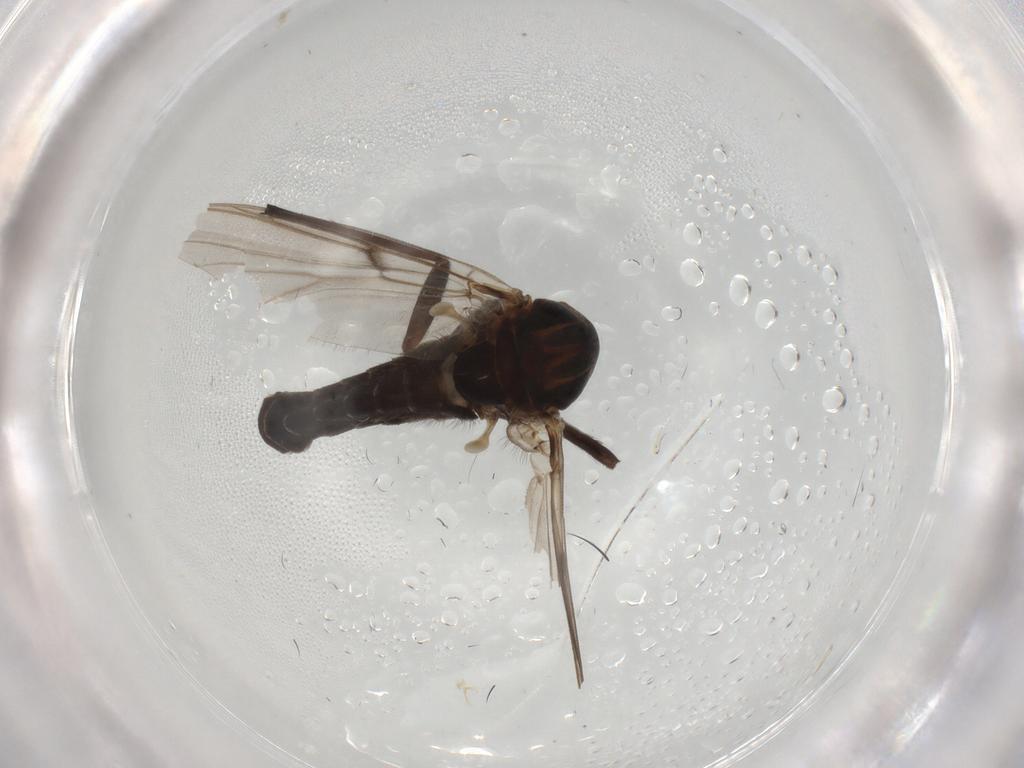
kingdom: Animalia
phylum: Arthropoda
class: Insecta
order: Diptera
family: Chironomidae
